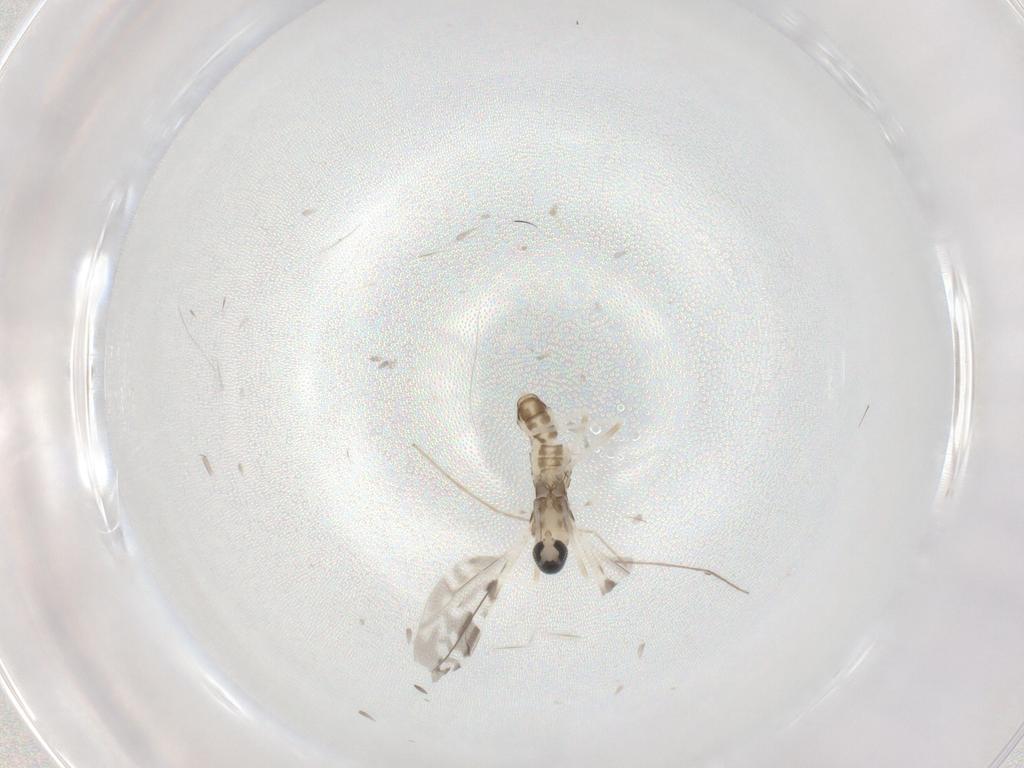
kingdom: Animalia
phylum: Arthropoda
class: Insecta
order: Diptera
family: Cecidomyiidae
